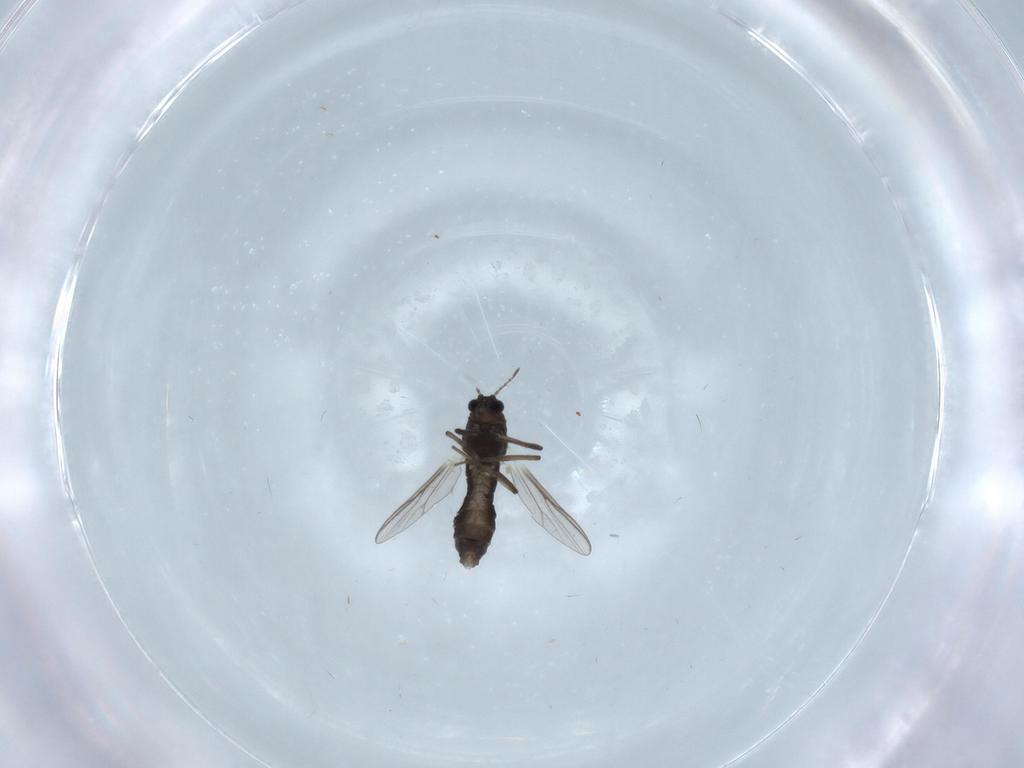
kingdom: Animalia
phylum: Arthropoda
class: Insecta
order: Diptera
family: Chironomidae
